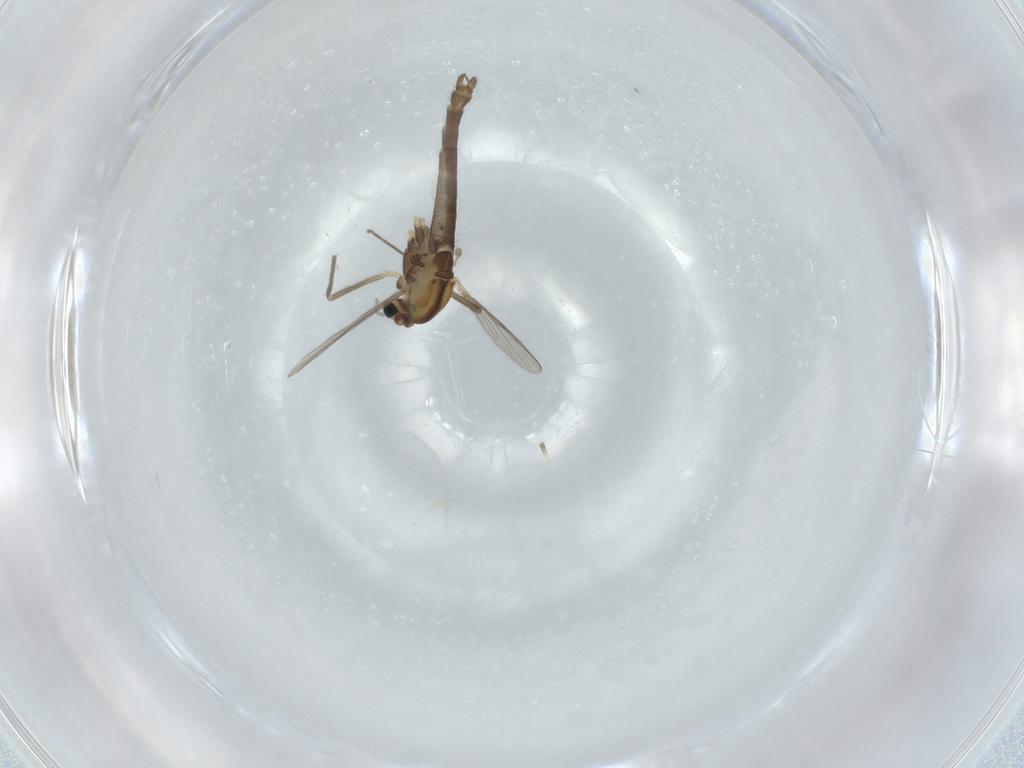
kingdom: Animalia
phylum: Arthropoda
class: Insecta
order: Diptera
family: Chironomidae
